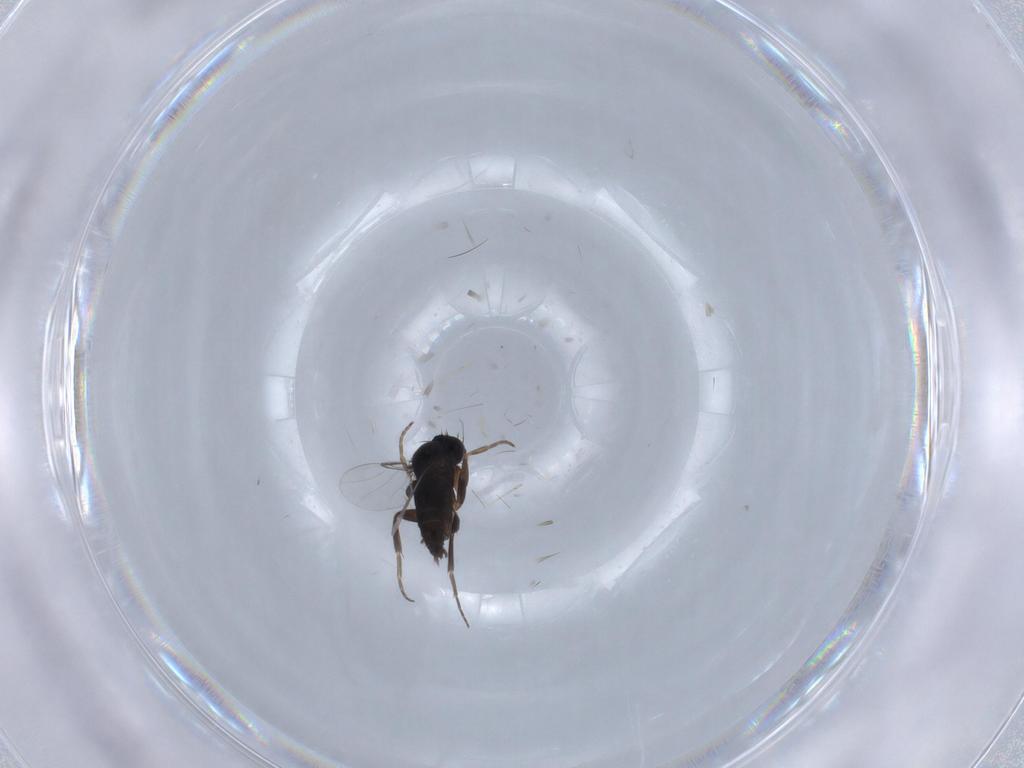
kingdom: Animalia
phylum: Arthropoda
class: Insecta
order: Diptera
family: Phoridae
